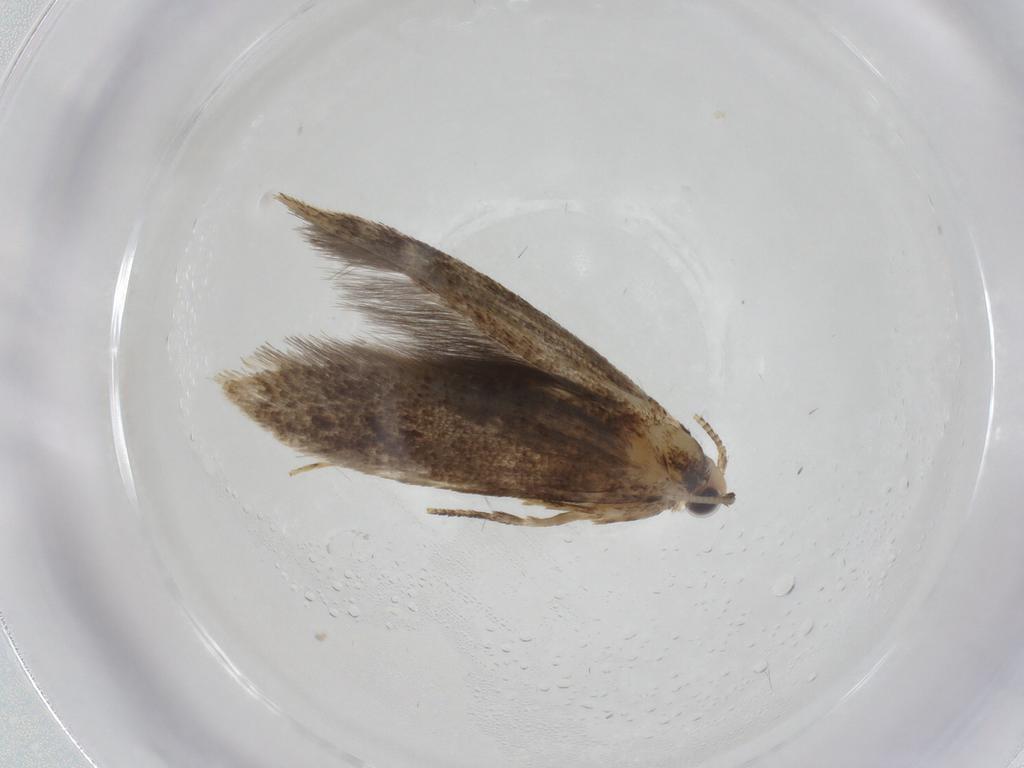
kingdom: Animalia
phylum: Arthropoda
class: Insecta
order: Lepidoptera
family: Tineidae
